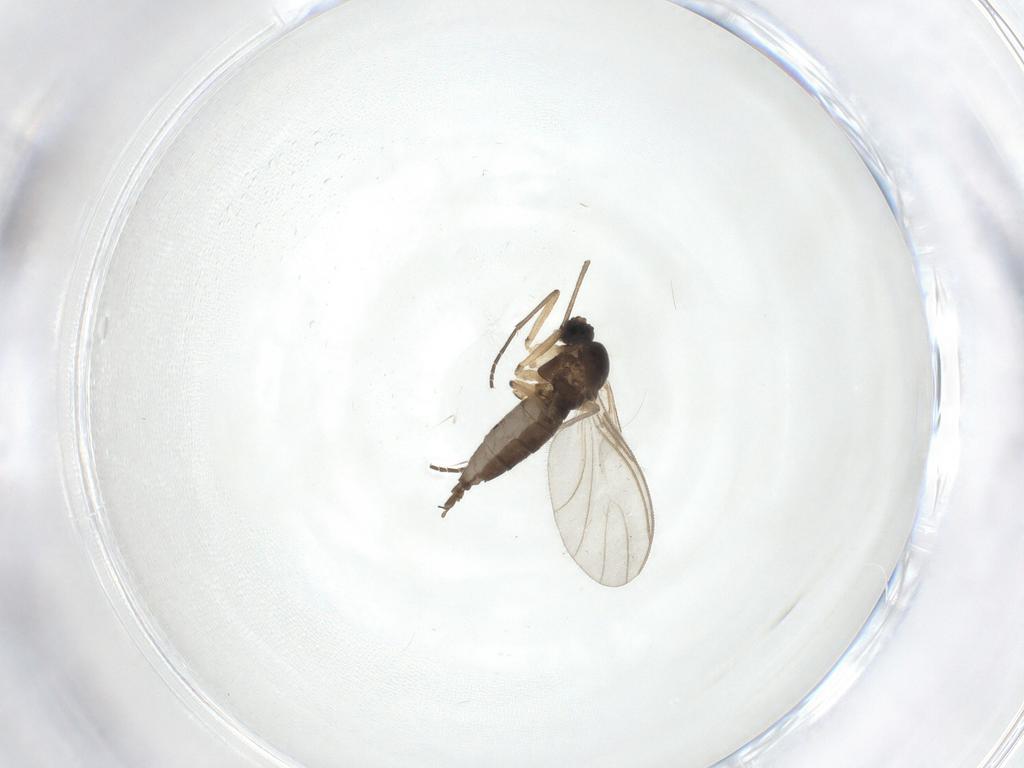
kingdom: Animalia
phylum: Arthropoda
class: Insecta
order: Diptera
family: Sciaridae
